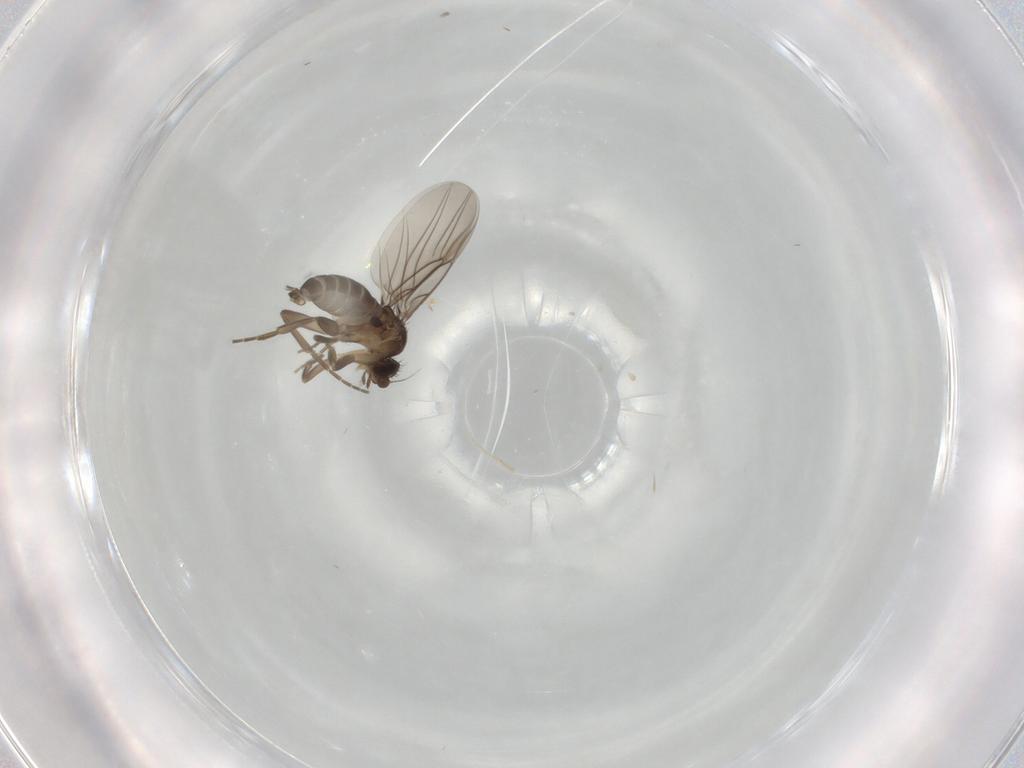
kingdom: Animalia
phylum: Arthropoda
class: Insecta
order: Diptera
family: Phoridae
